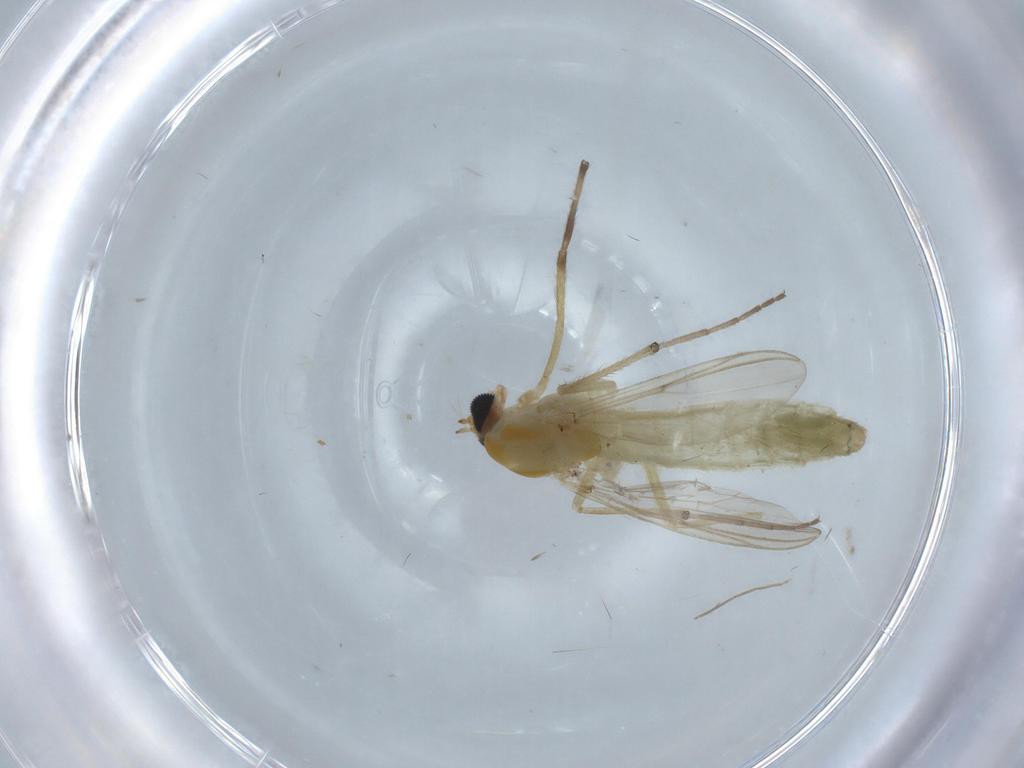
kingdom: Animalia
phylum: Arthropoda
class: Insecta
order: Diptera
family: Chironomidae
